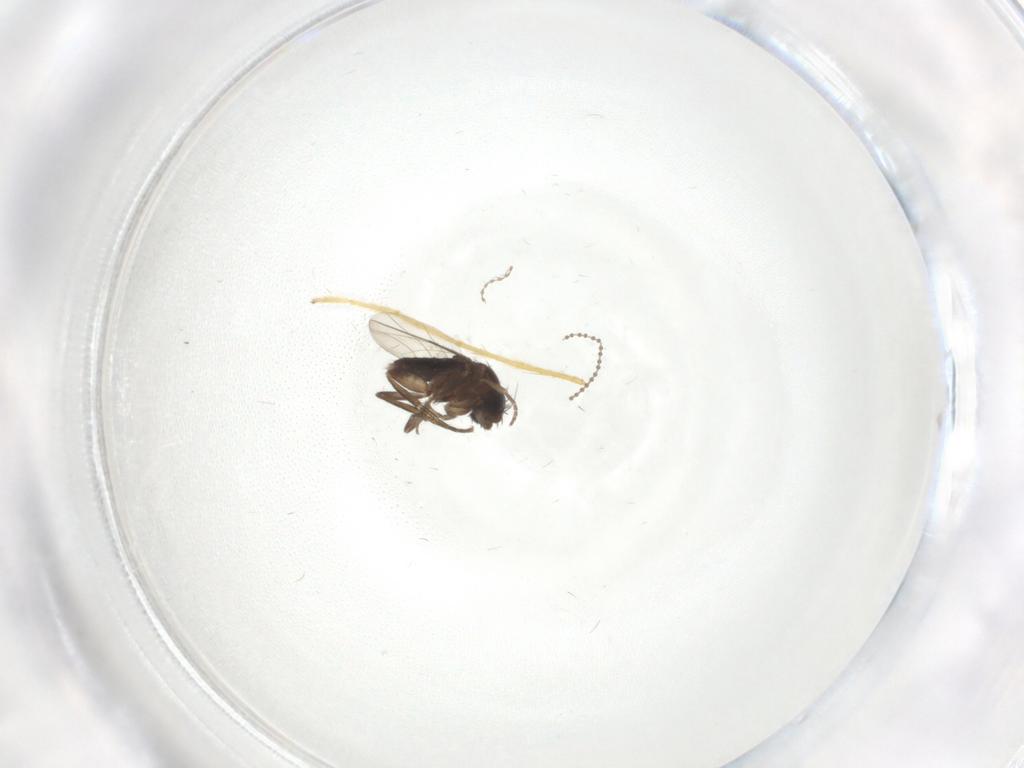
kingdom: Animalia
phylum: Arthropoda
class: Insecta
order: Diptera
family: Phoridae
